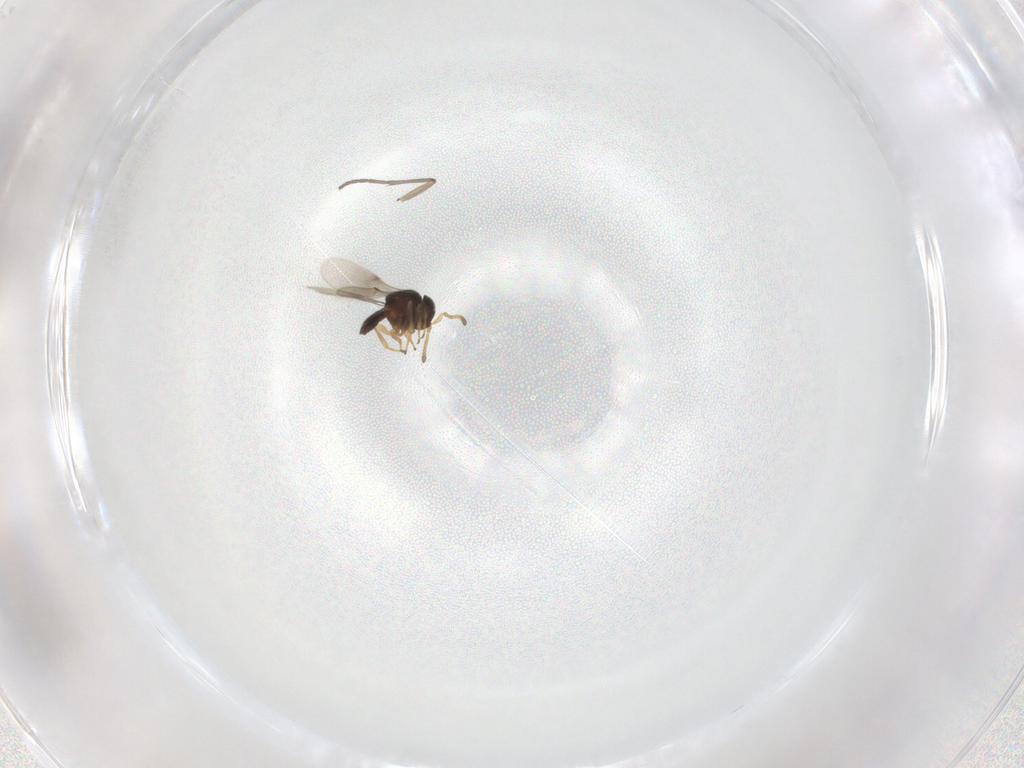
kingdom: Animalia
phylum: Arthropoda
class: Insecta
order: Hymenoptera
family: Scelionidae
